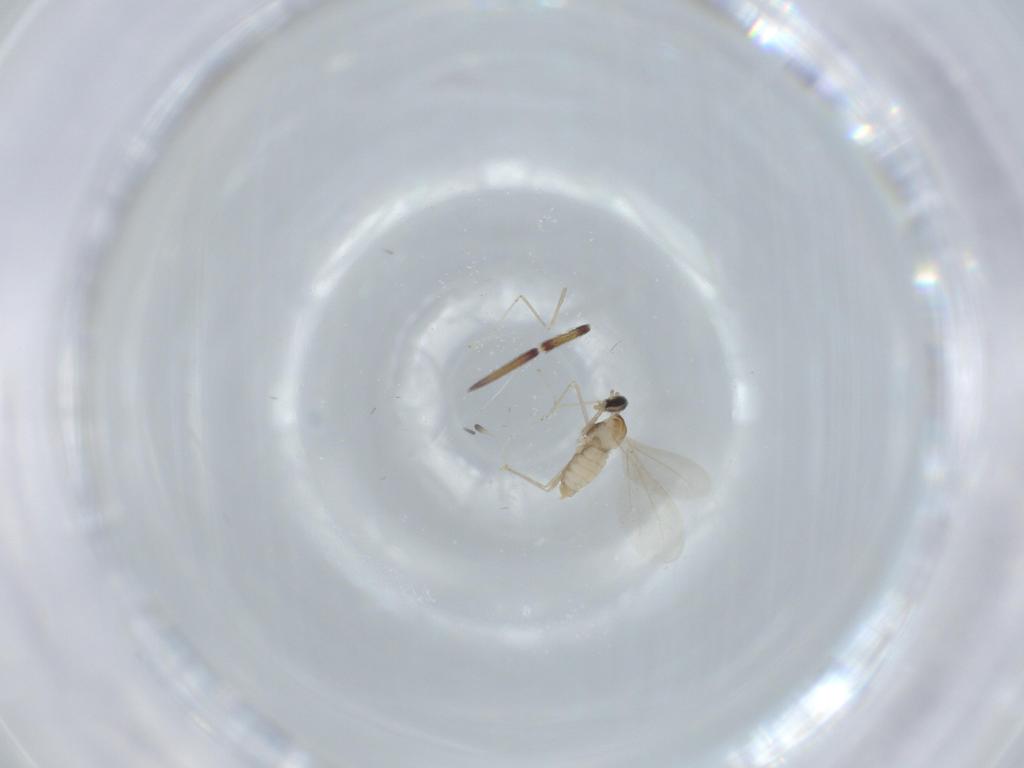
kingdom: Animalia
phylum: Arthropoda
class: Insecta
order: Diptera
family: Cecidomyiidae
